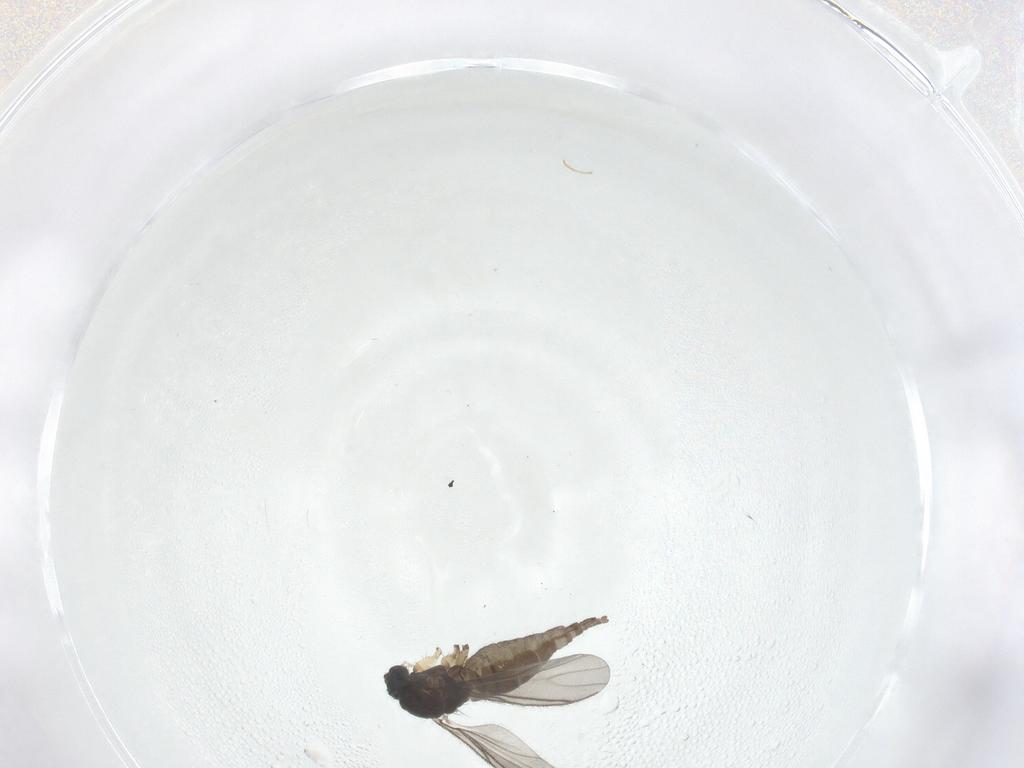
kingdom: Animalia
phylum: Arthropoda
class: Insecta
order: Diptera
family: Sciaridae
